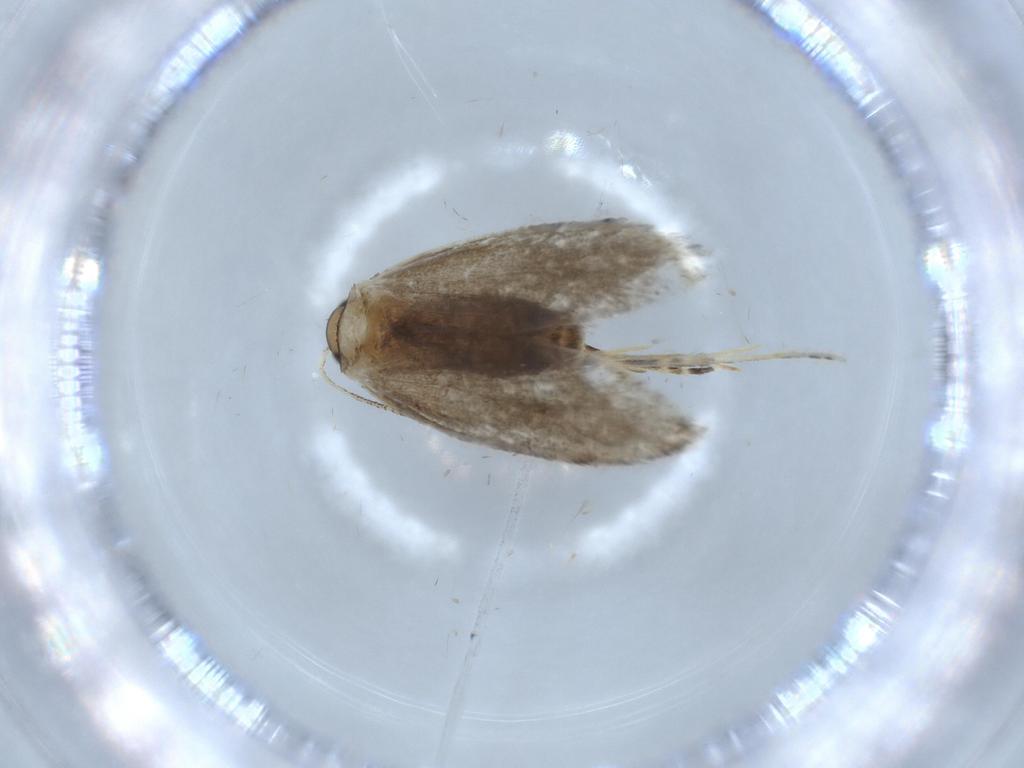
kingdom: Animalia
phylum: Arthropoda
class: Insecta
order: Lepidoptera
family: Tineidae
